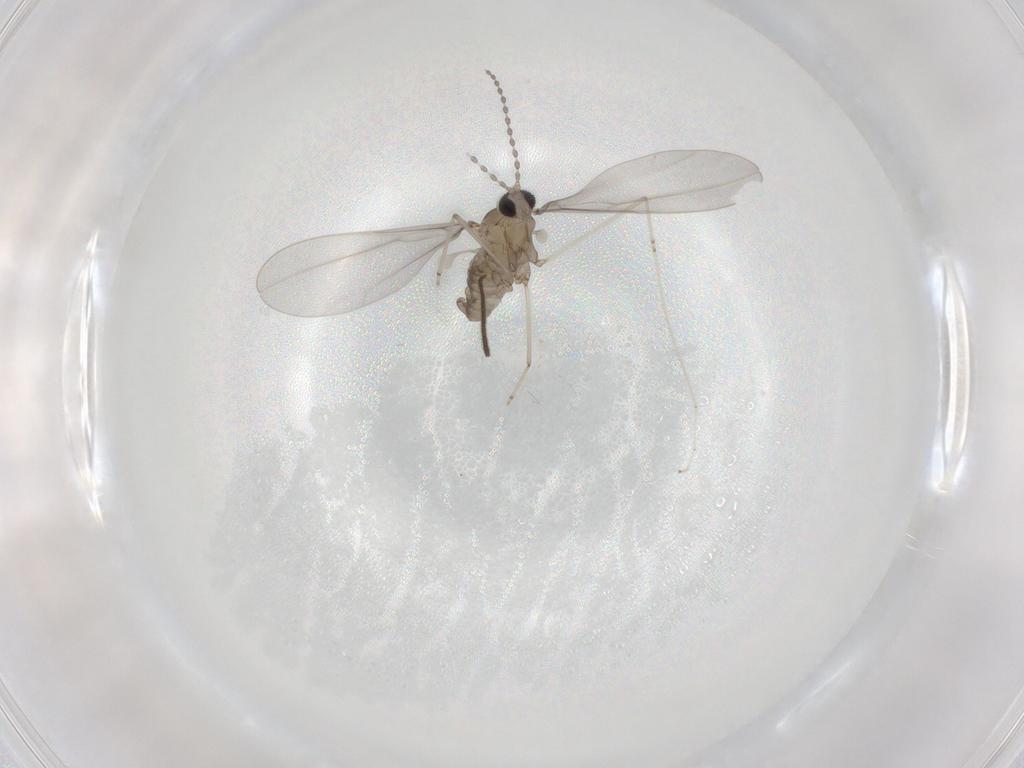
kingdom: Animalia
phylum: Arthropoda
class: Insecta
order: Diptera
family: Cecidomyiidae
